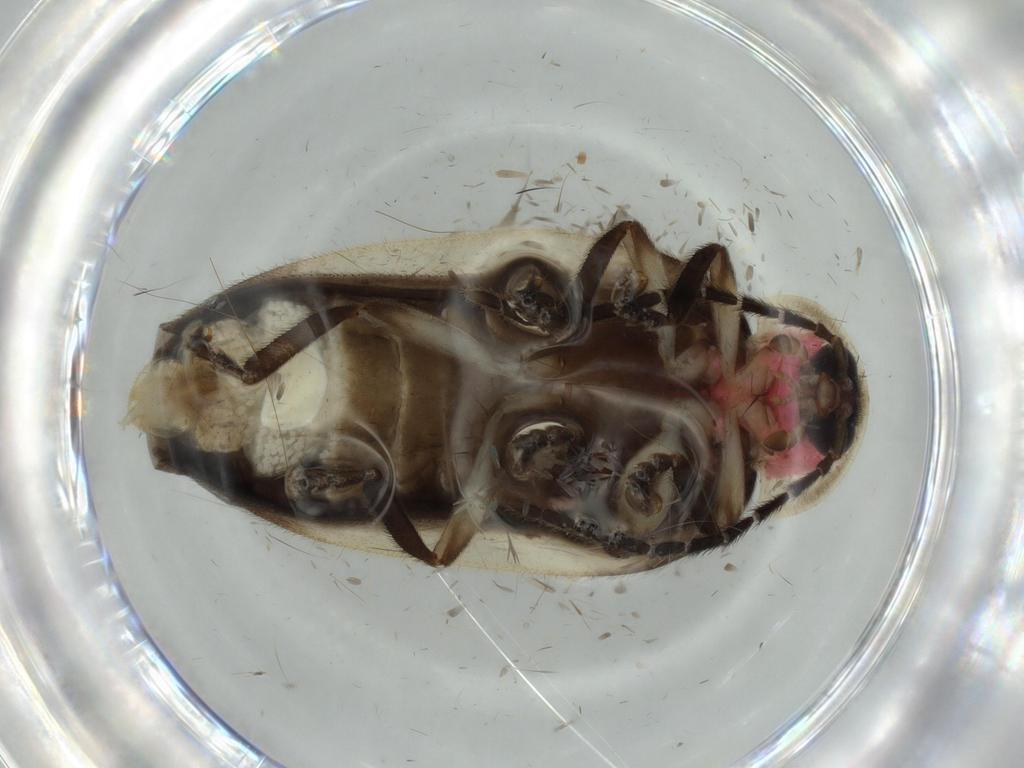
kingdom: Animalia
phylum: Arthropoda
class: Insecta
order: Coleoptera
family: Lampyridae
